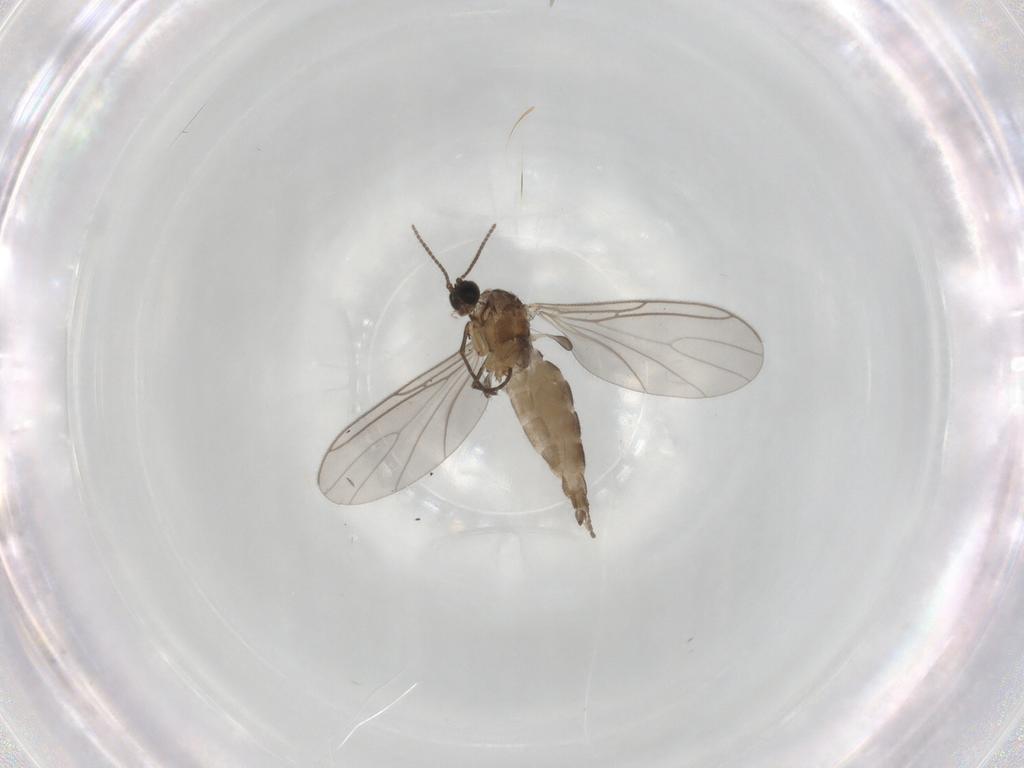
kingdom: Animalia
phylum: Arthropoda
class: Insecta
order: Diptera
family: Sciaridae
